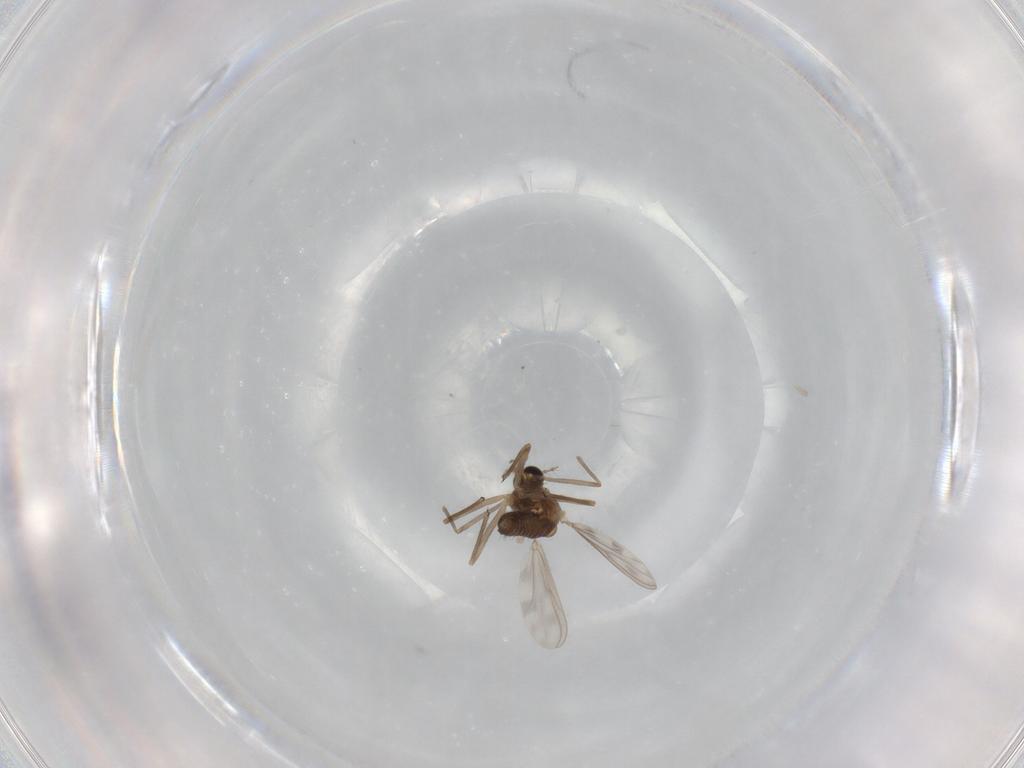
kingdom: Animalia
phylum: Arthropoda
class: Insecta
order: Diptera
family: Chironomidae
